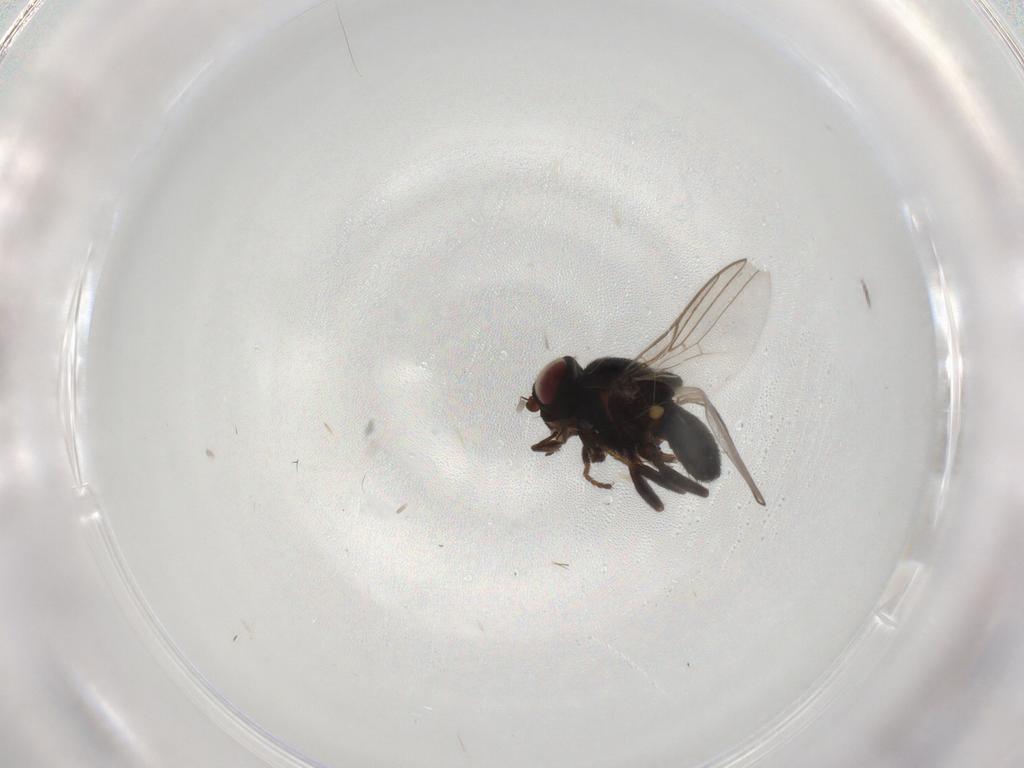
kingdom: Animalia
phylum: Arthropoda
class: Insecta
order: Diptera
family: Chloropidae
